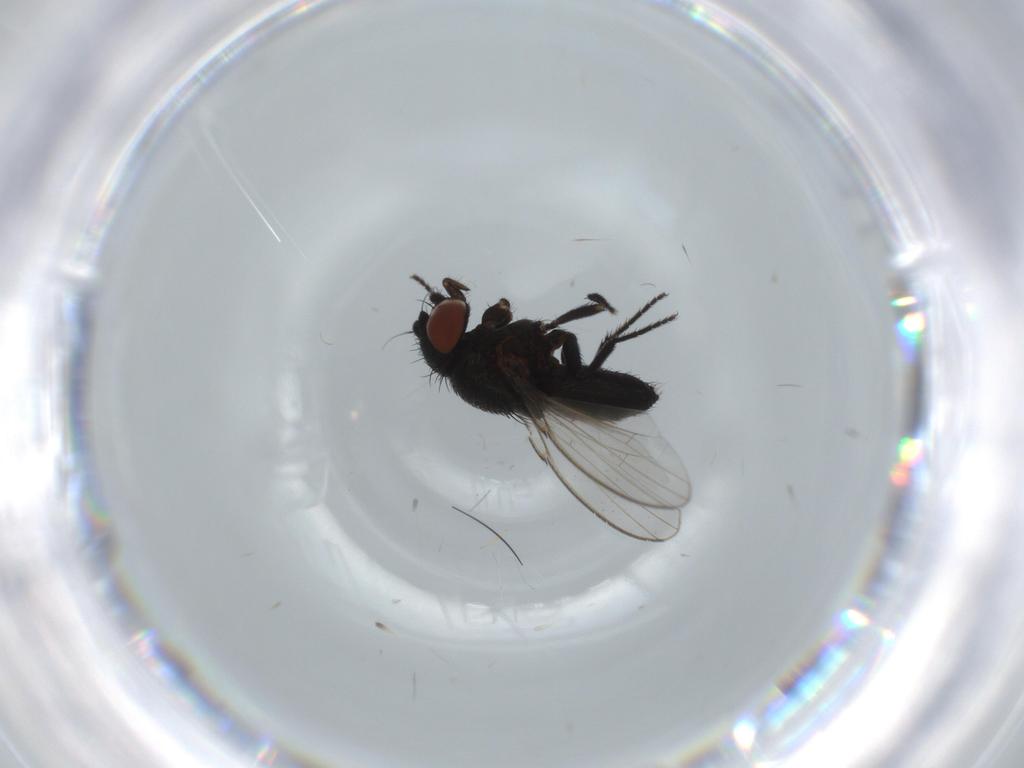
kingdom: Animalia
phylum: Arthropoda
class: Insecta
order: Diptera
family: Sciaridae
